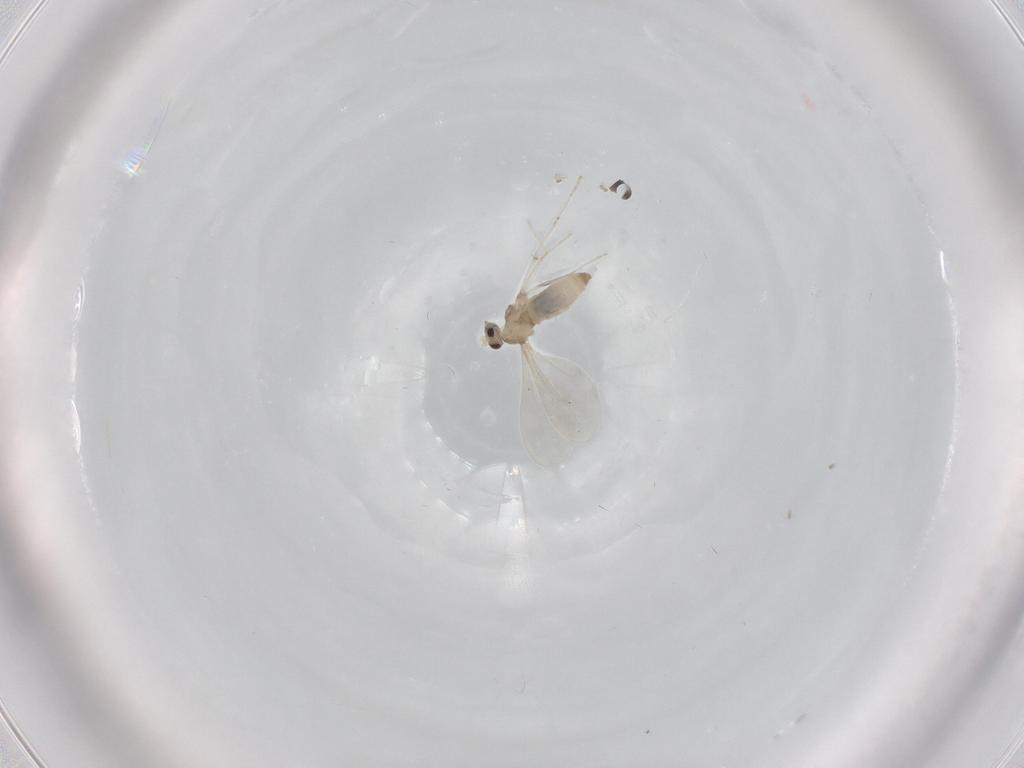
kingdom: Animalia
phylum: Arthropoda
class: Insecta
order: Diptera
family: Cecidomyiidae
